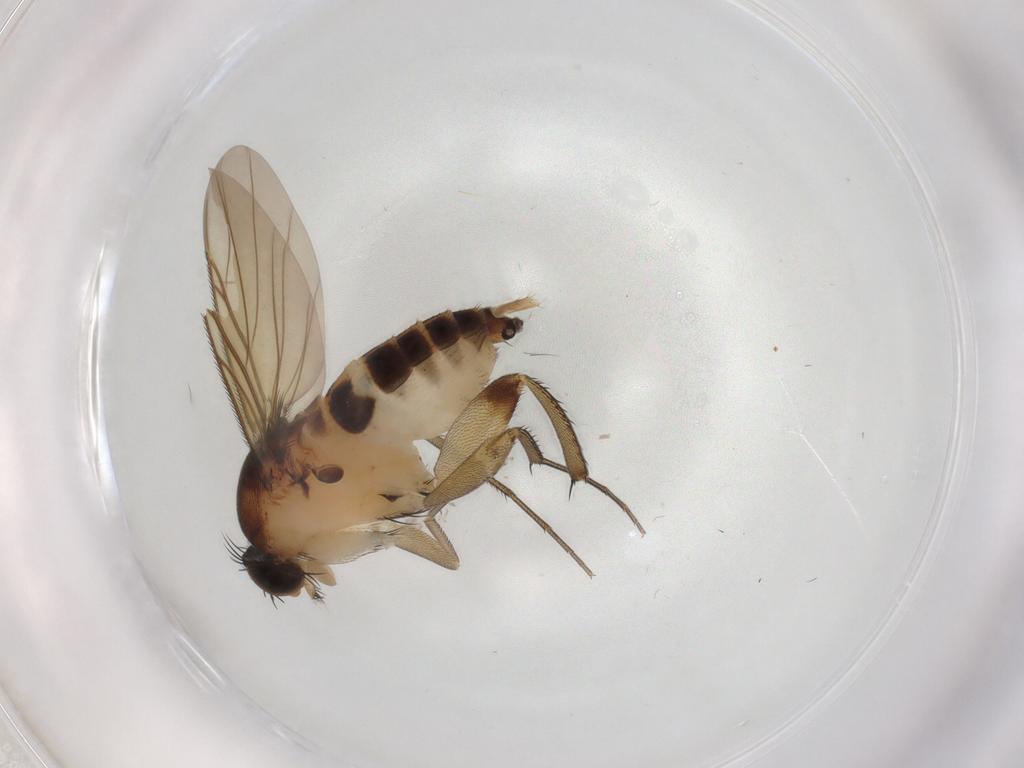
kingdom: Animalia
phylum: Arthropoda
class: Insecta
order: Diptera
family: Phoridae
